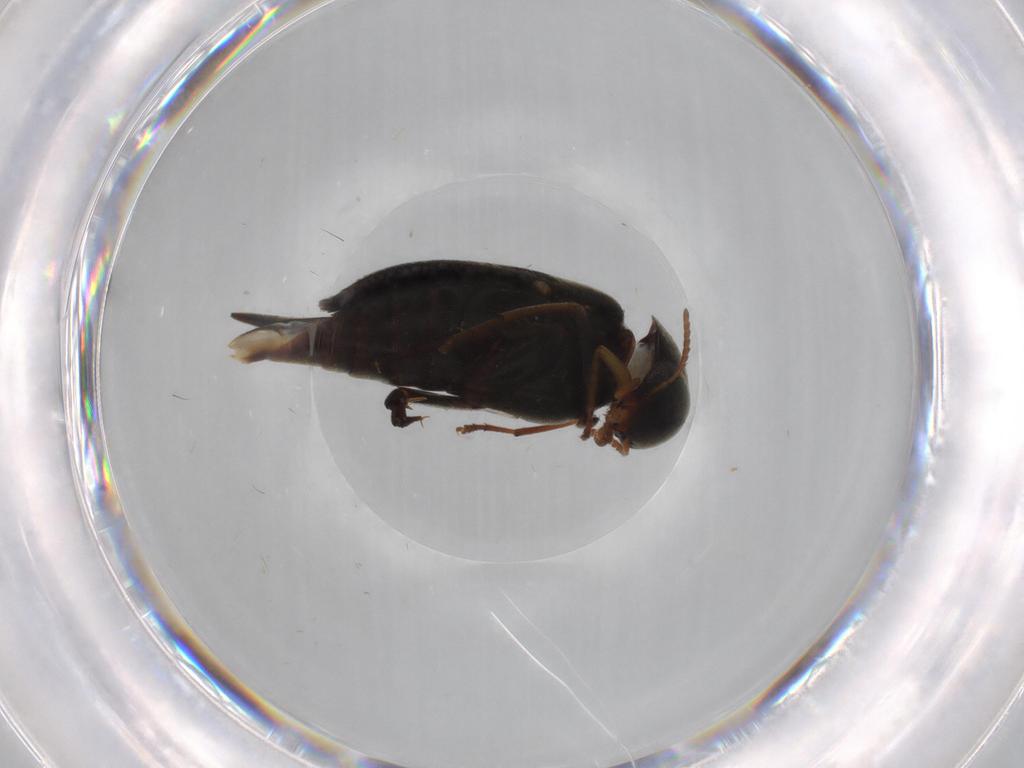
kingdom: Animalia
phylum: Arthropoda
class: Insecta
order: Coleoptera
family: Mordellidae
